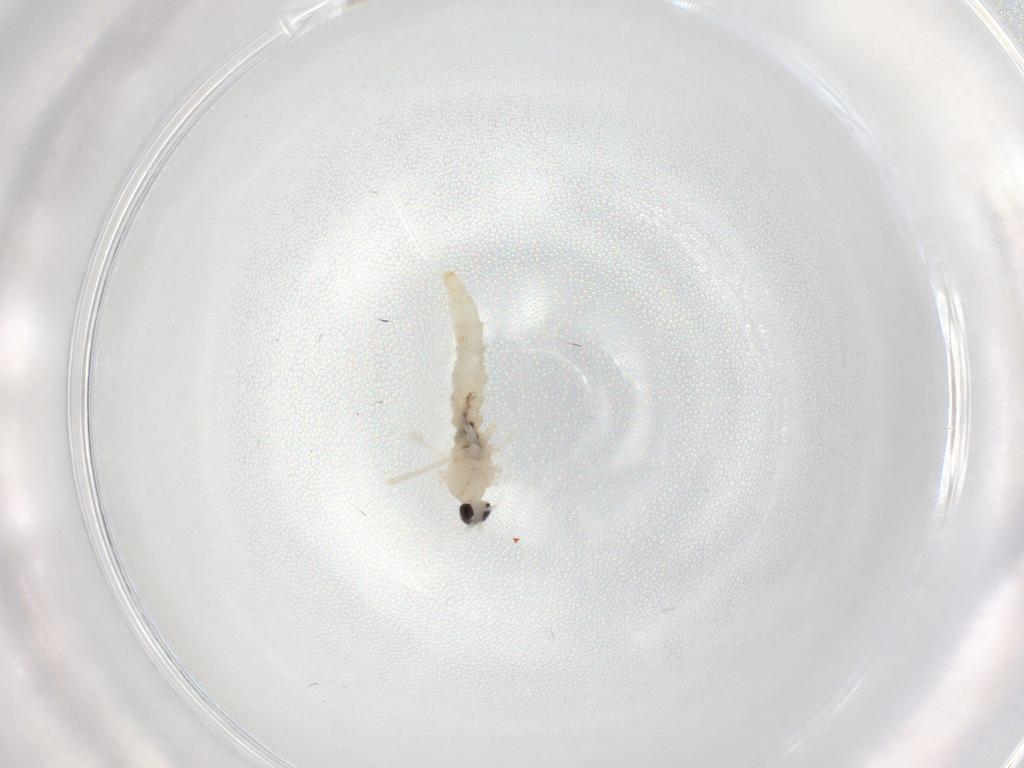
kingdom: Animalia
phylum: Arthropoda
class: Insecta
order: Diptera
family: Cecidomyiidae
